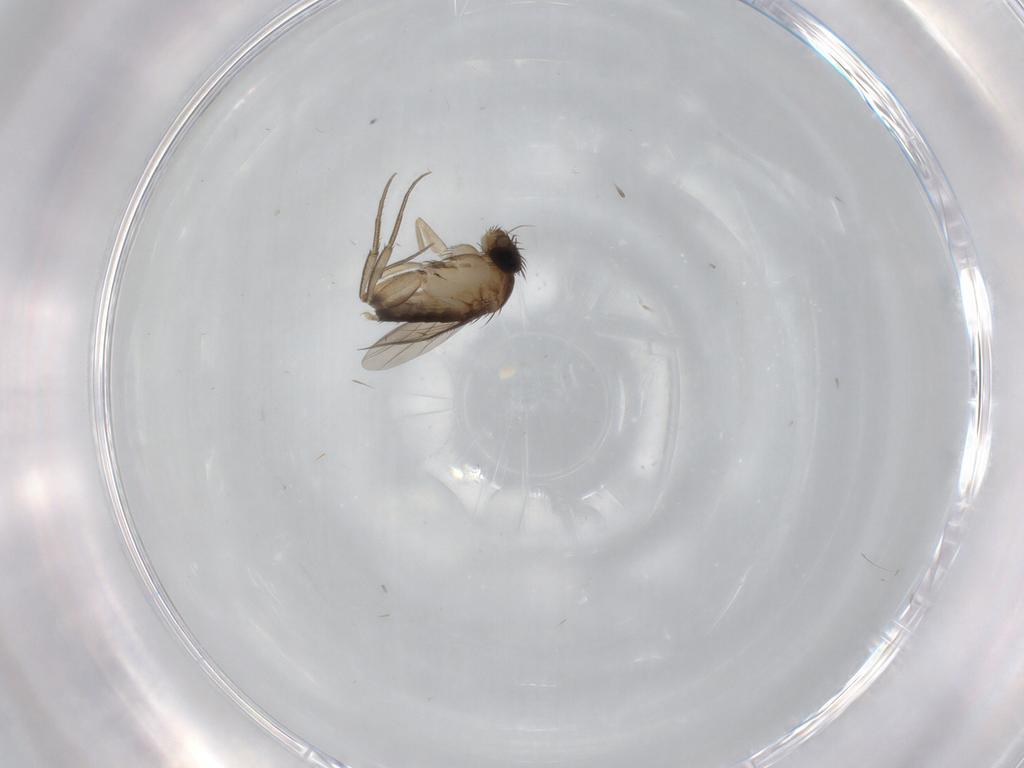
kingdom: Animalia
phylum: Arthropoda
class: Insecta
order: Diptera
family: Phoridae
